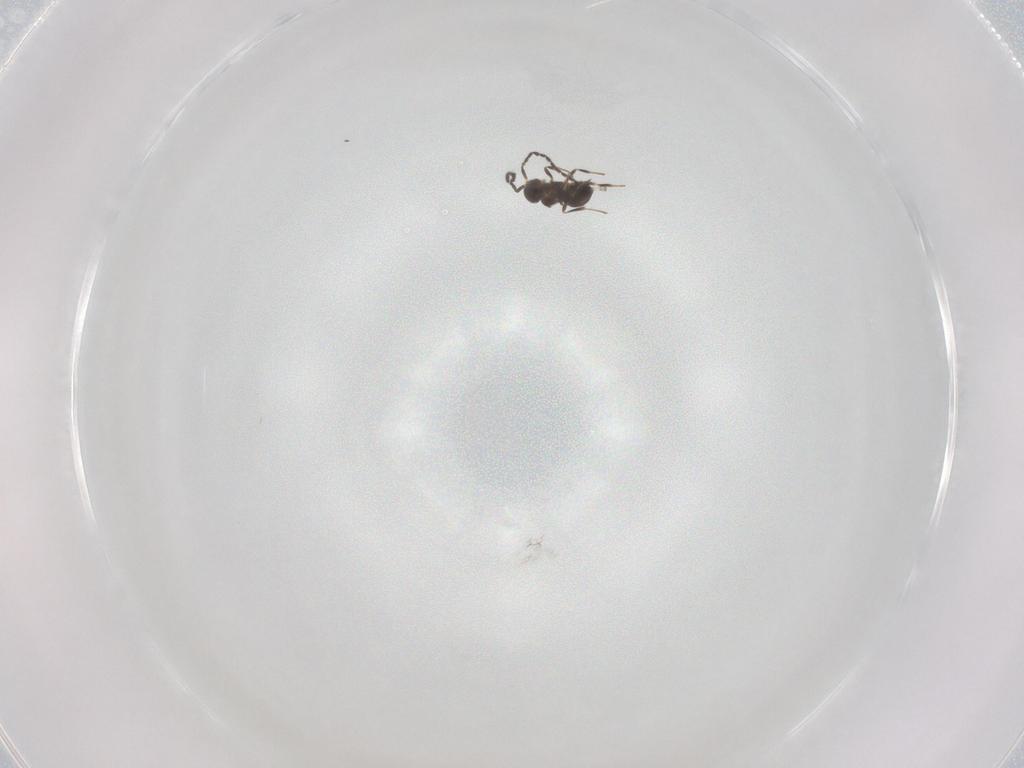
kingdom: Animalia
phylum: Arthropoda
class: Insecta
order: Hymenoptera
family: Scelionidae
